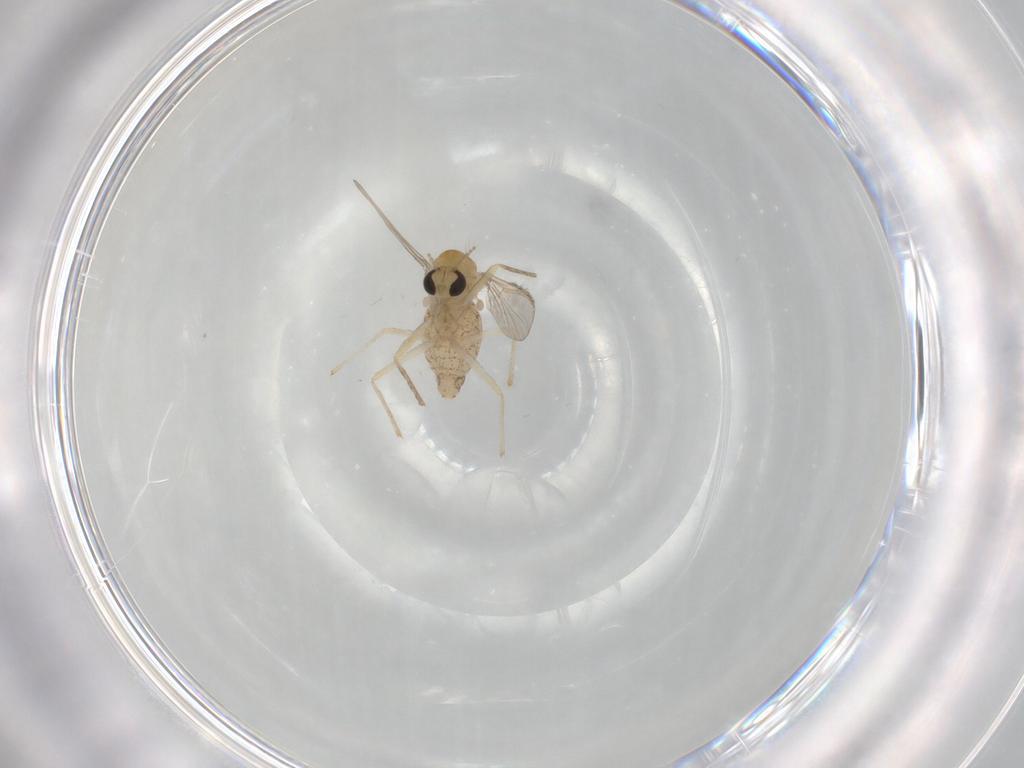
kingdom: Animalia
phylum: Arthropoda
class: Insecta
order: Diptera
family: Chironomidae
